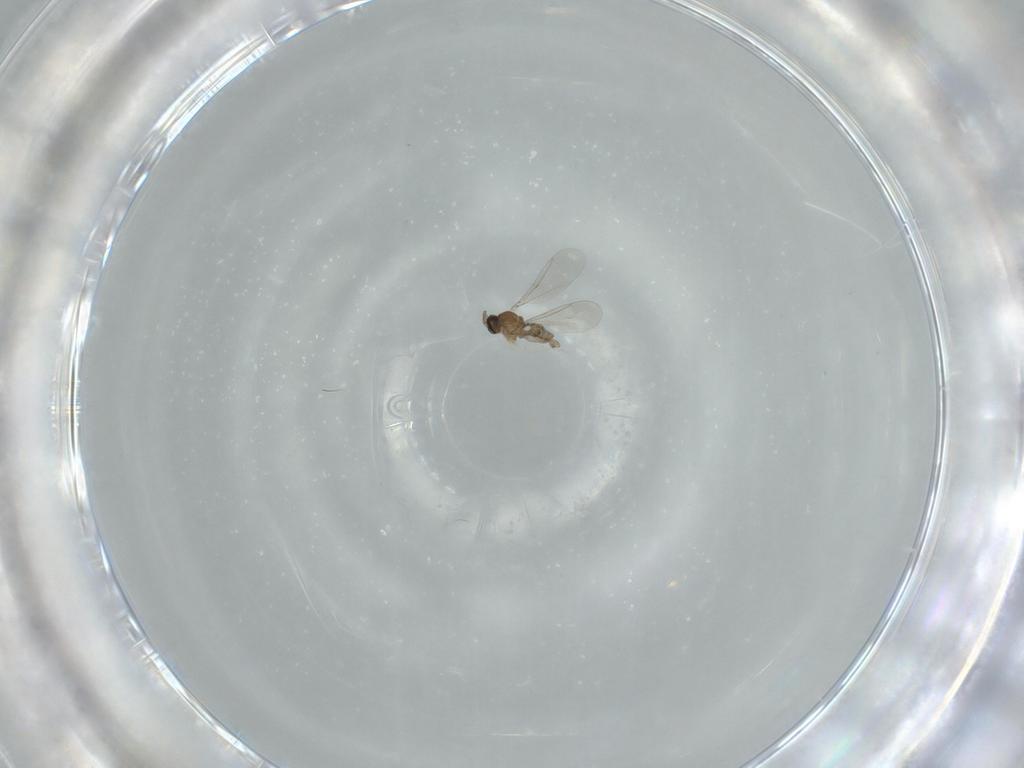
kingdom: Animalia
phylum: Arthropoda
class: Insecta
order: Diptera
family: Cecidomyiidae
